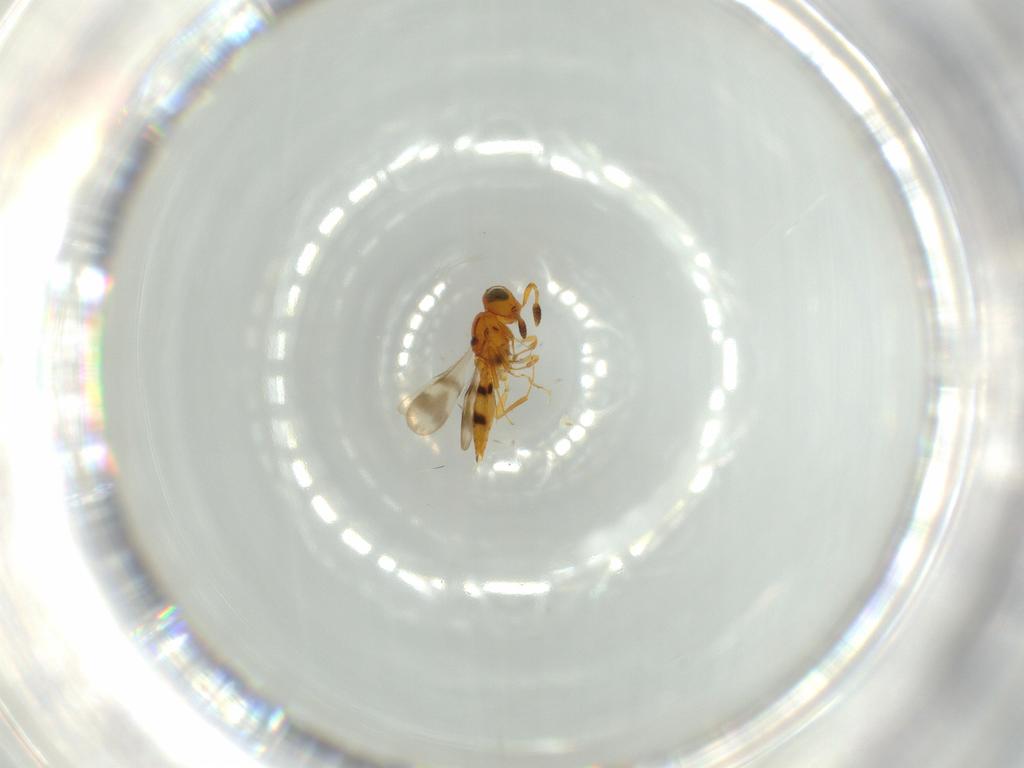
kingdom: Animalia
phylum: Arthropoda
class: Insecta
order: Hymenoptera
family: Scelionidae
